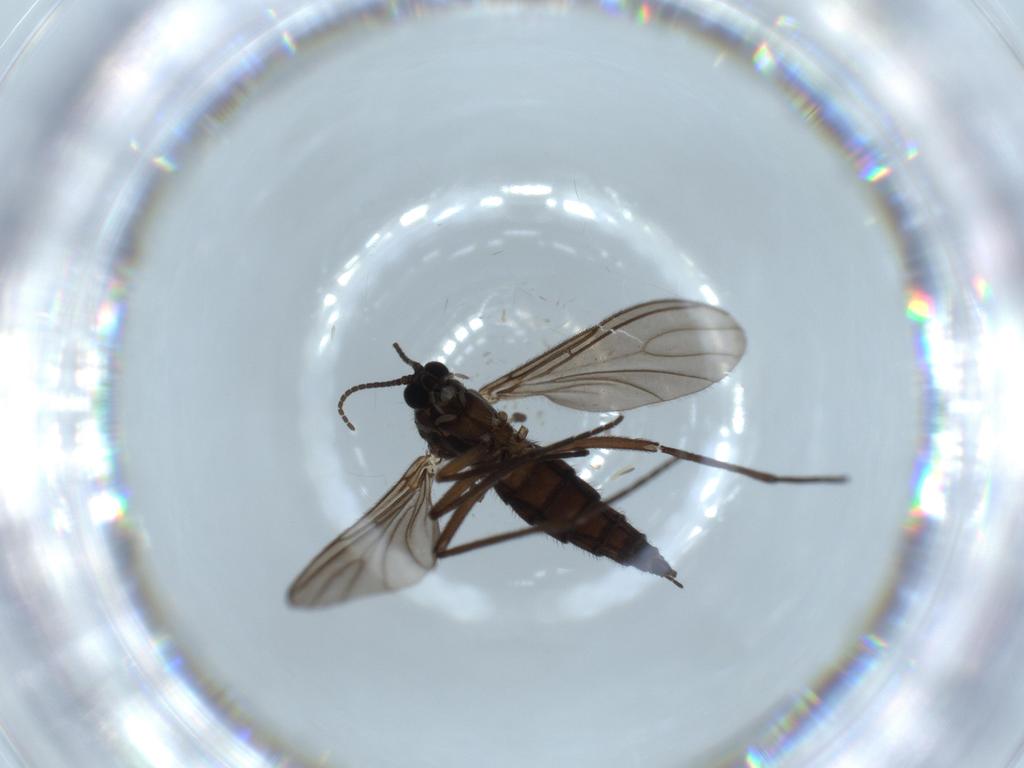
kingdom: Animalia
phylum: Arthropoda
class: Insecta
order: Diptera
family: Sciaridae
